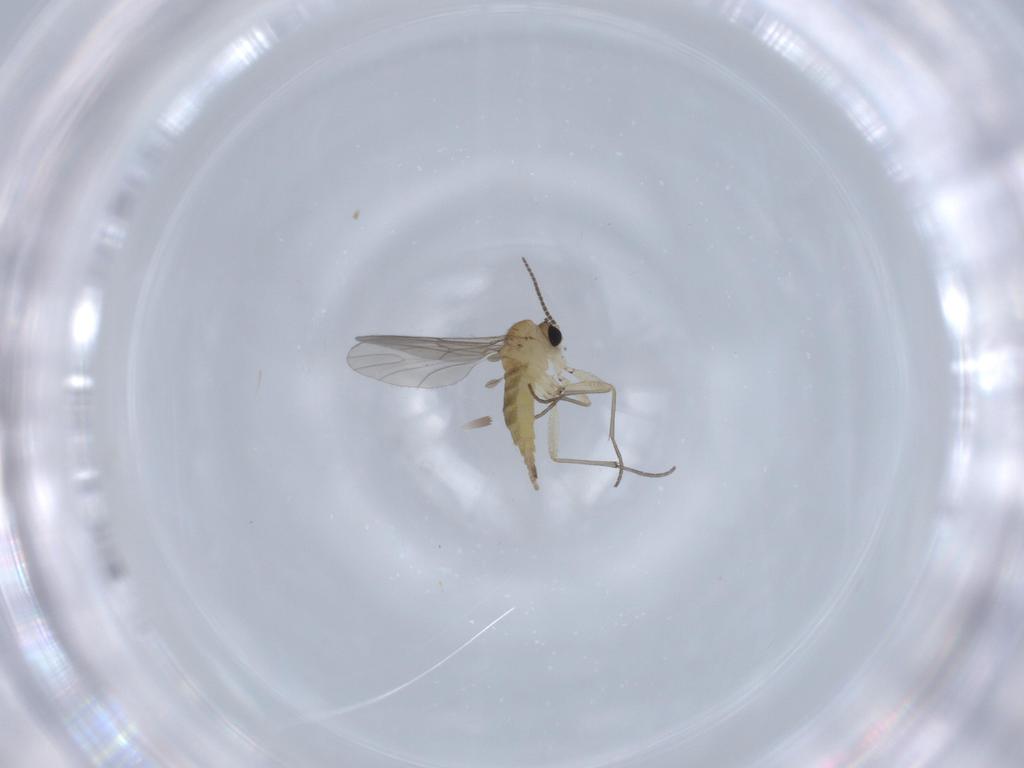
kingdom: Animalia
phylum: Arthropoda
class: Insecta
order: Diptera
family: Sciaridae
